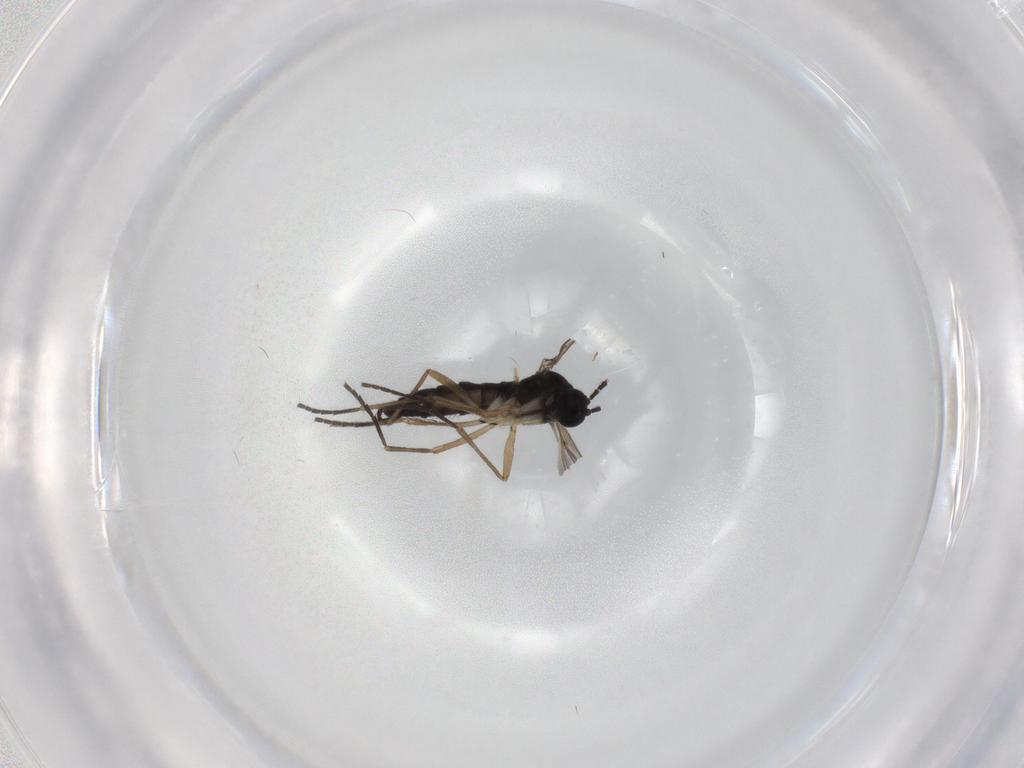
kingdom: Animalia
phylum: Arthropoda
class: Insecta
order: Diptera
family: Sciaridae
